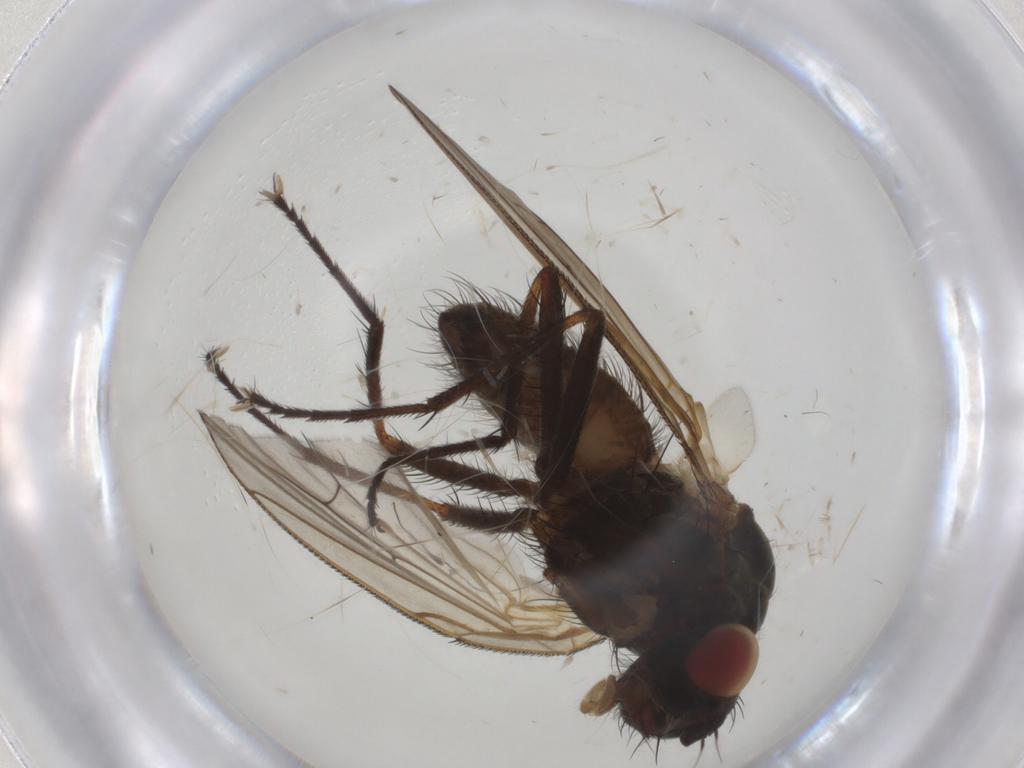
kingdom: Animalia
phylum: Arthropoda
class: Insecta
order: Diptera
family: Anthomyiidae
